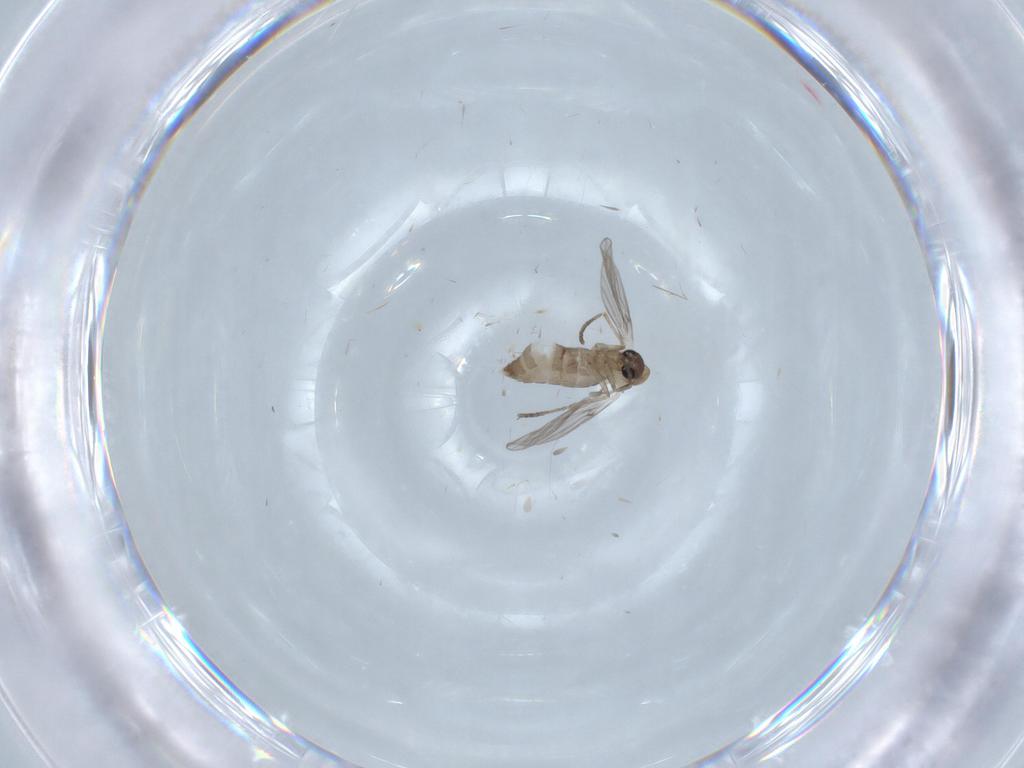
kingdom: Animalia
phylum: Arthropoda
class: Insecta
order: Diptera
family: Psychodidae
